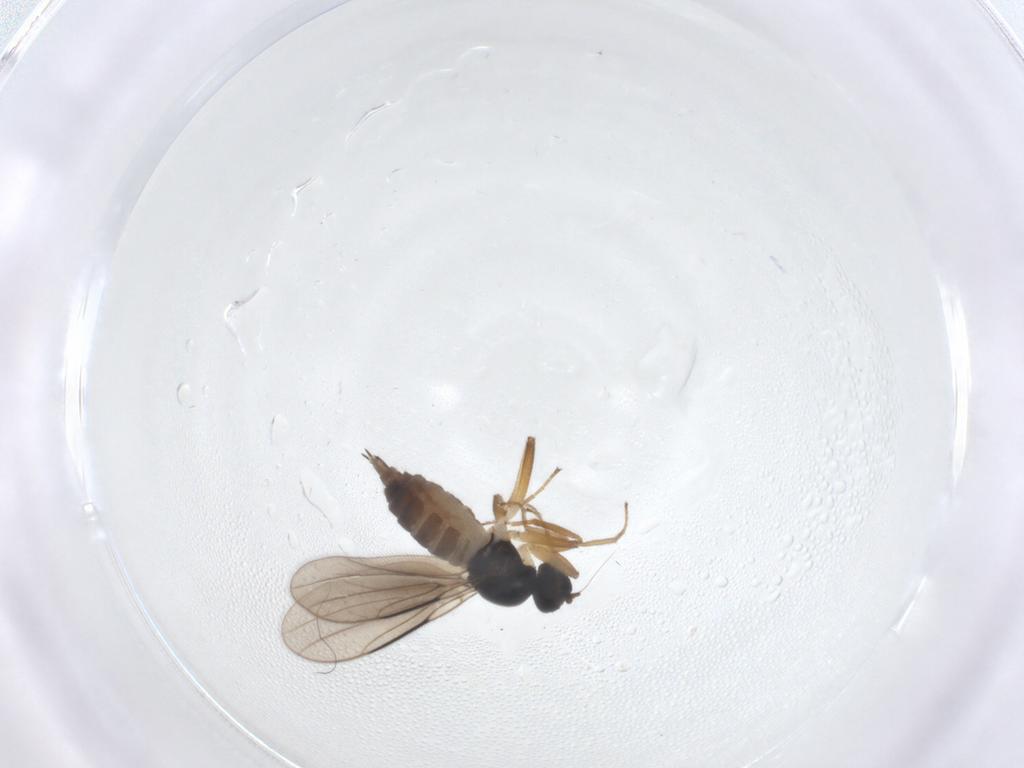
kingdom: Animalia
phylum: Arthropoda
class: Insecta
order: Diptera
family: Hybotidae
